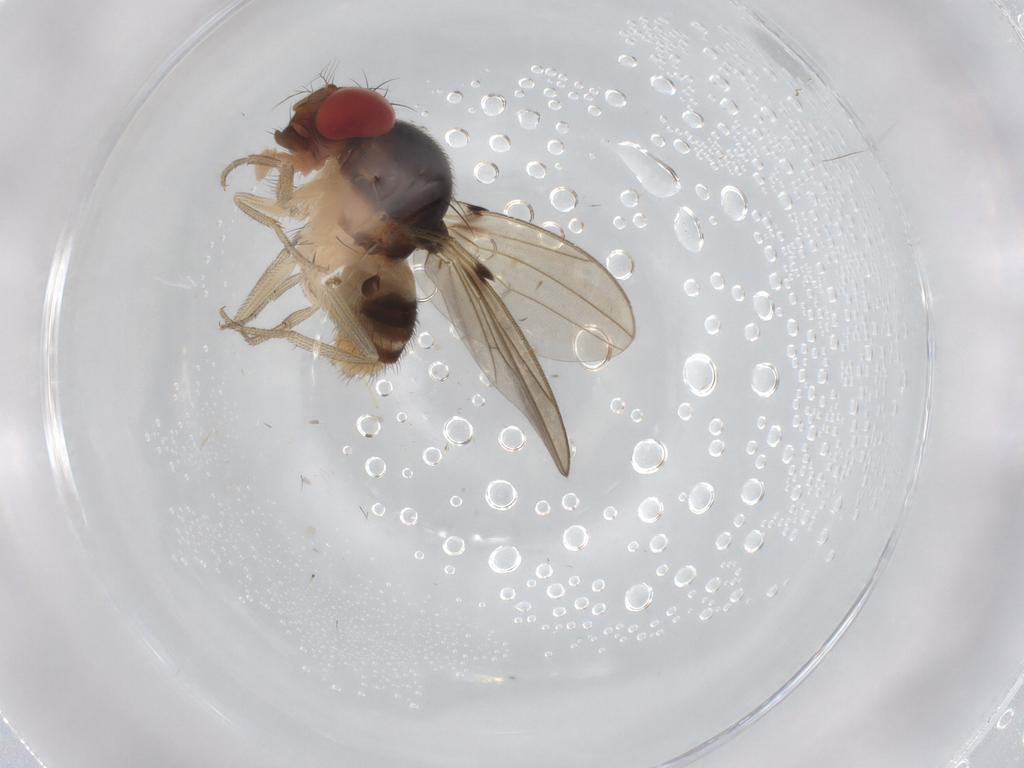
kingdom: Animalia
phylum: Arthropoda
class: Insecta
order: Diptera
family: Drosophilidae
